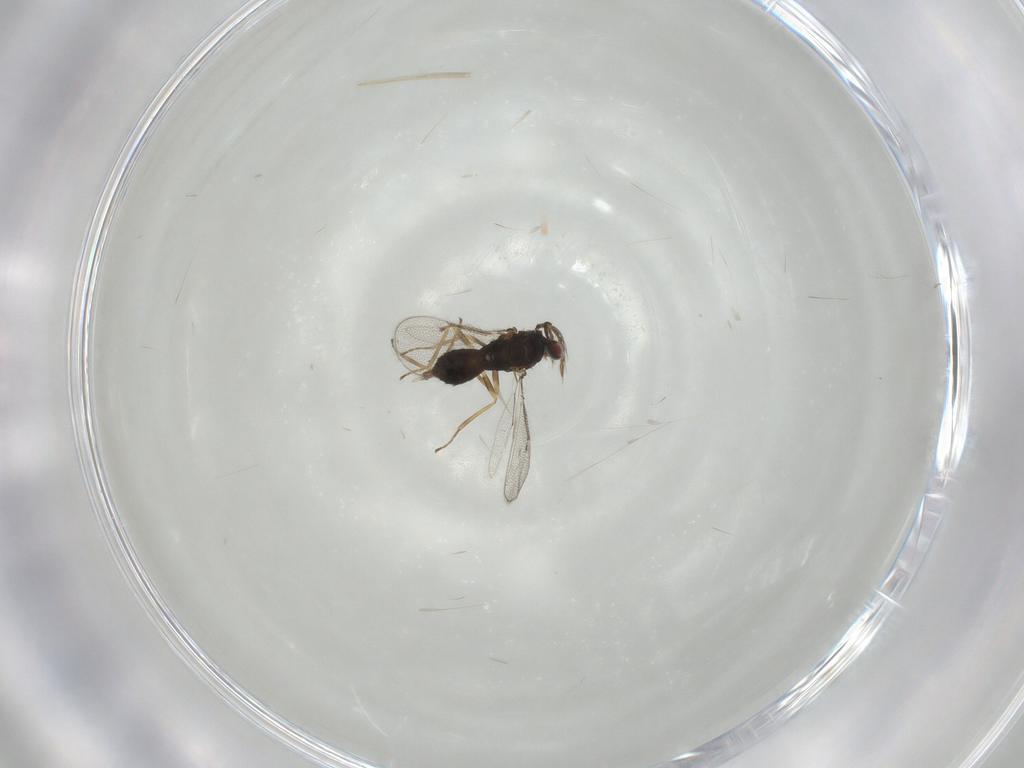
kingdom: Animalia
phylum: Arthropoda
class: Insecta
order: Hymenoptera
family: Eulophidae
